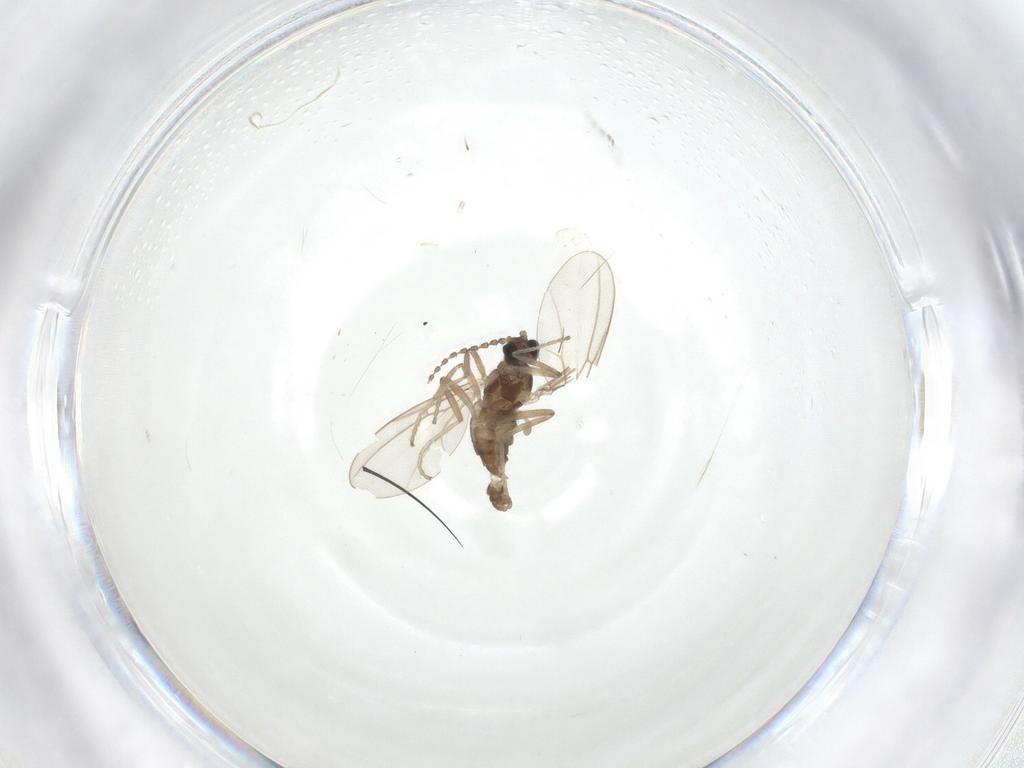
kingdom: Animalia
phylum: Arthropoda
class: Insecta
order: Diptera
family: Cecidomyiidae
